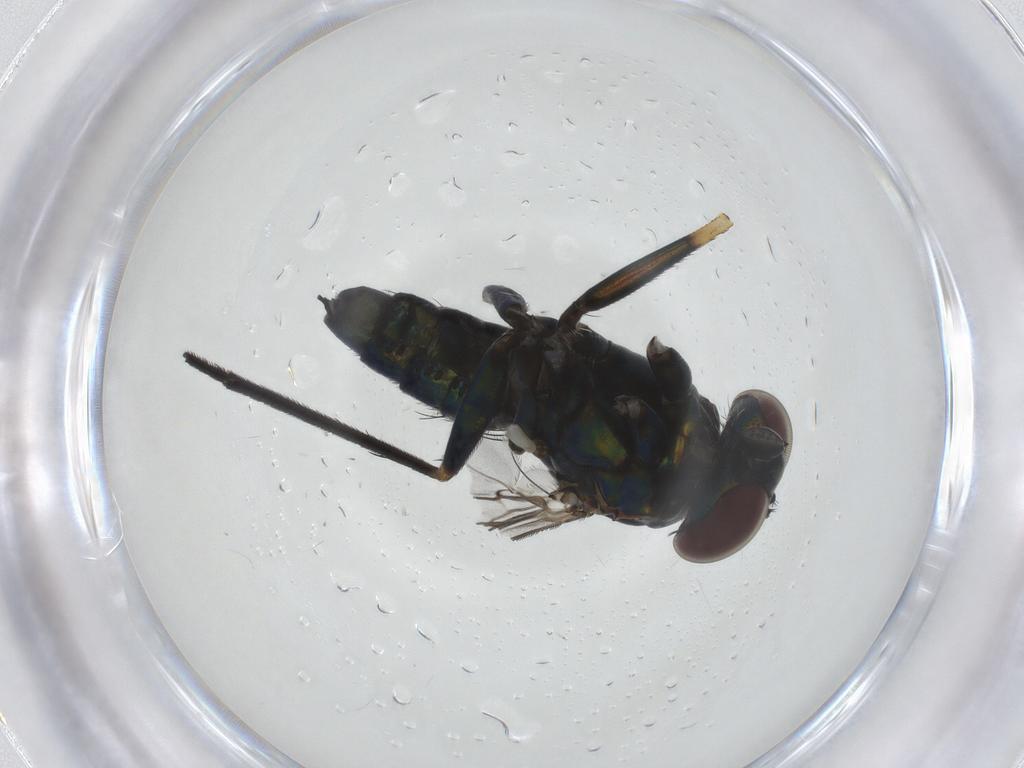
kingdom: Animalia
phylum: Arthropoda
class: Insecta
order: Diptera
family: Dolichopodidae
